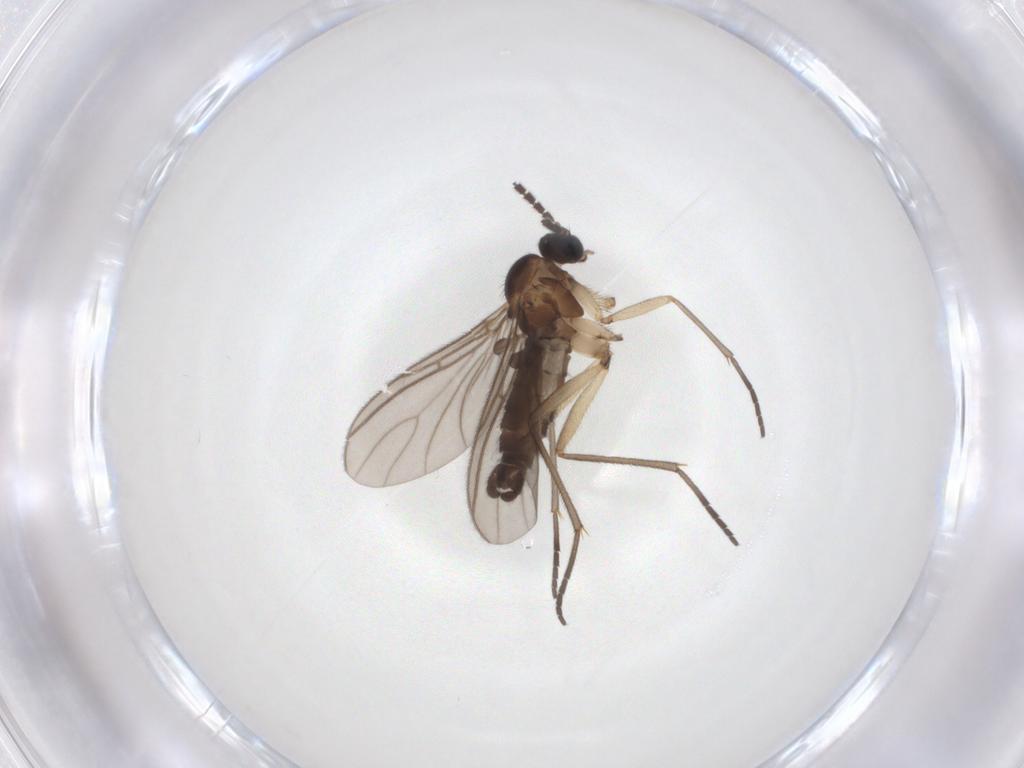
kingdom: Animalia
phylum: Arthropoda
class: Insecta
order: Diptera
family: Sciaridae
